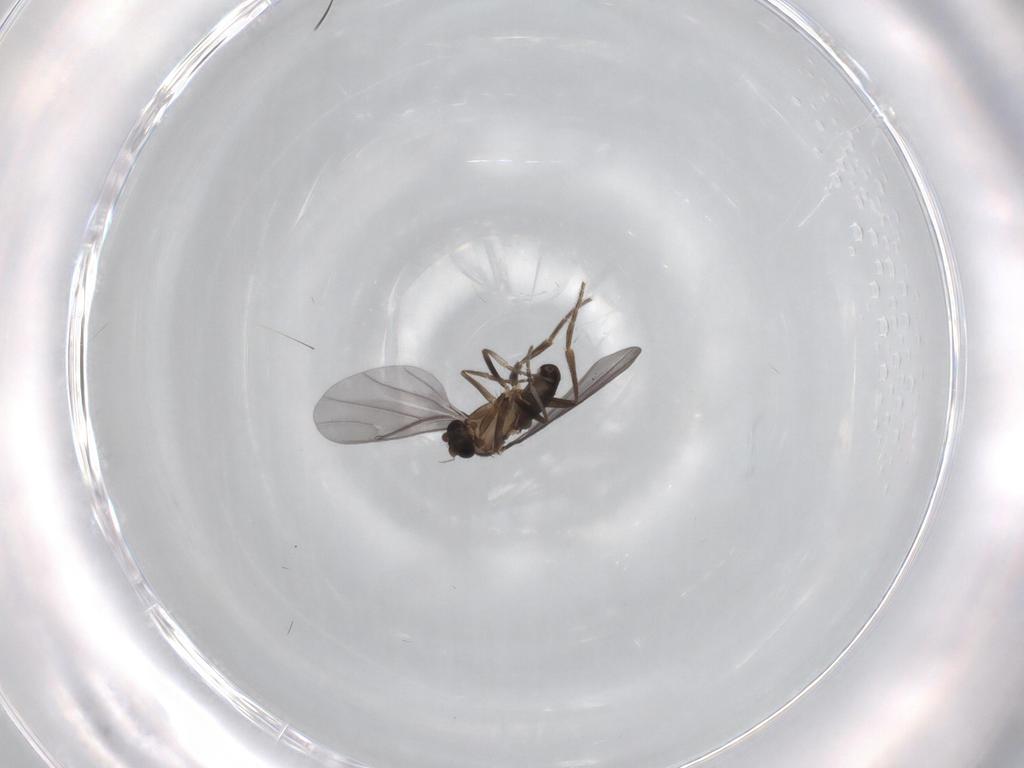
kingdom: Animalia
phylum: Arthropoda
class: Insecta
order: Diptera
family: Phoridae
